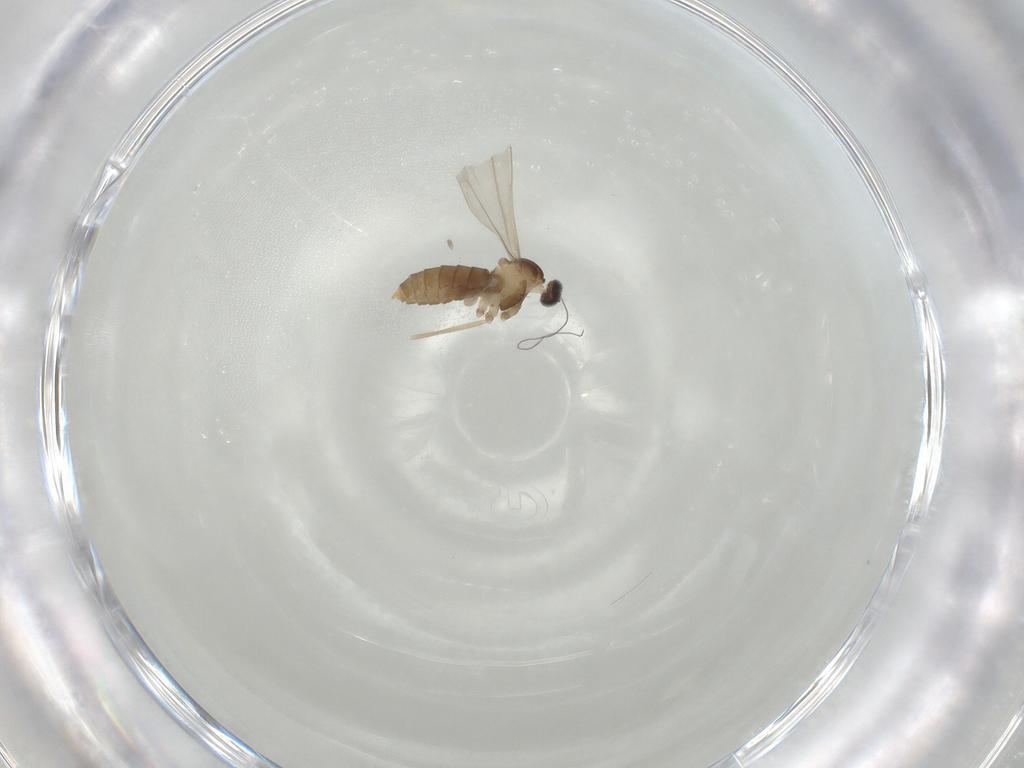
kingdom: Animalia
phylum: Arthropoda
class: Insecta
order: Diptera
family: Cecidomyiidae
